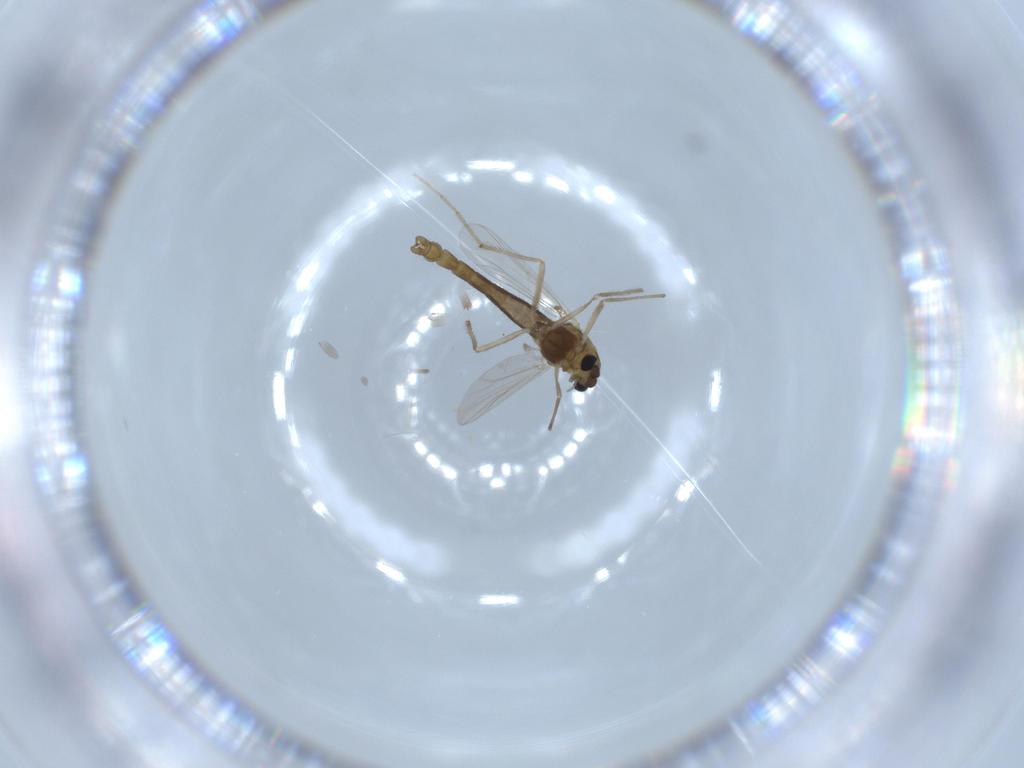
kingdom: Animalia
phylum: Arthropoda
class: Insecta
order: Diptera
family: Chironomidae
